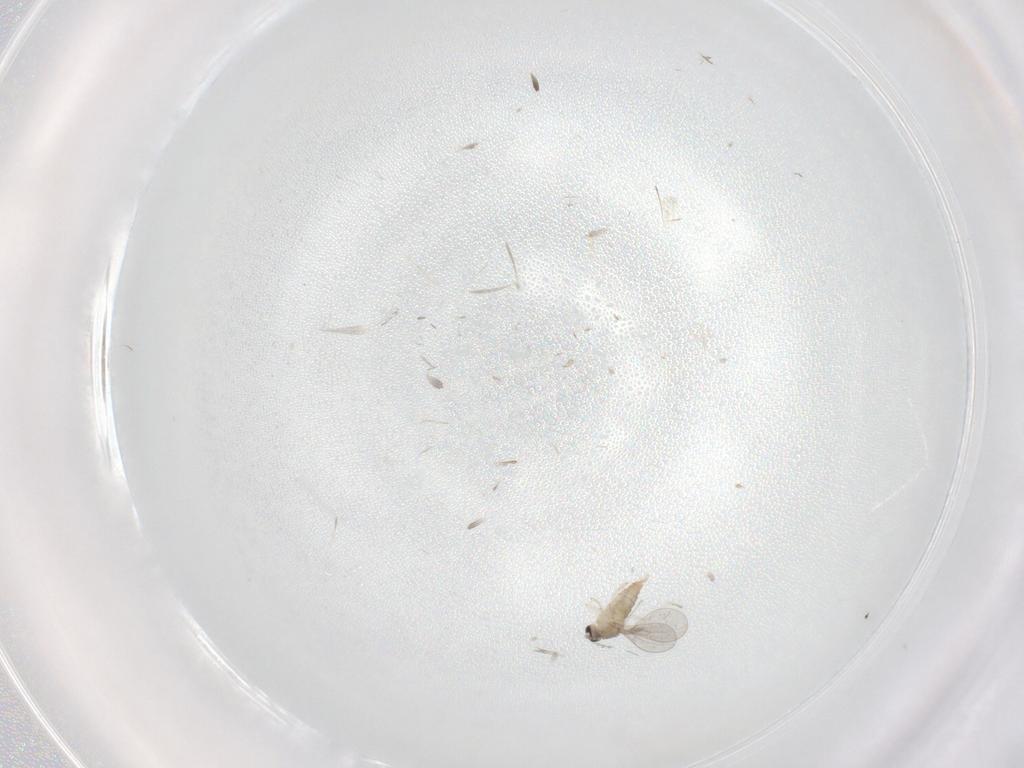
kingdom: Animalia
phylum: Arthropoda
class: Insecta
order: Diptera
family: Cecidomyiidae
